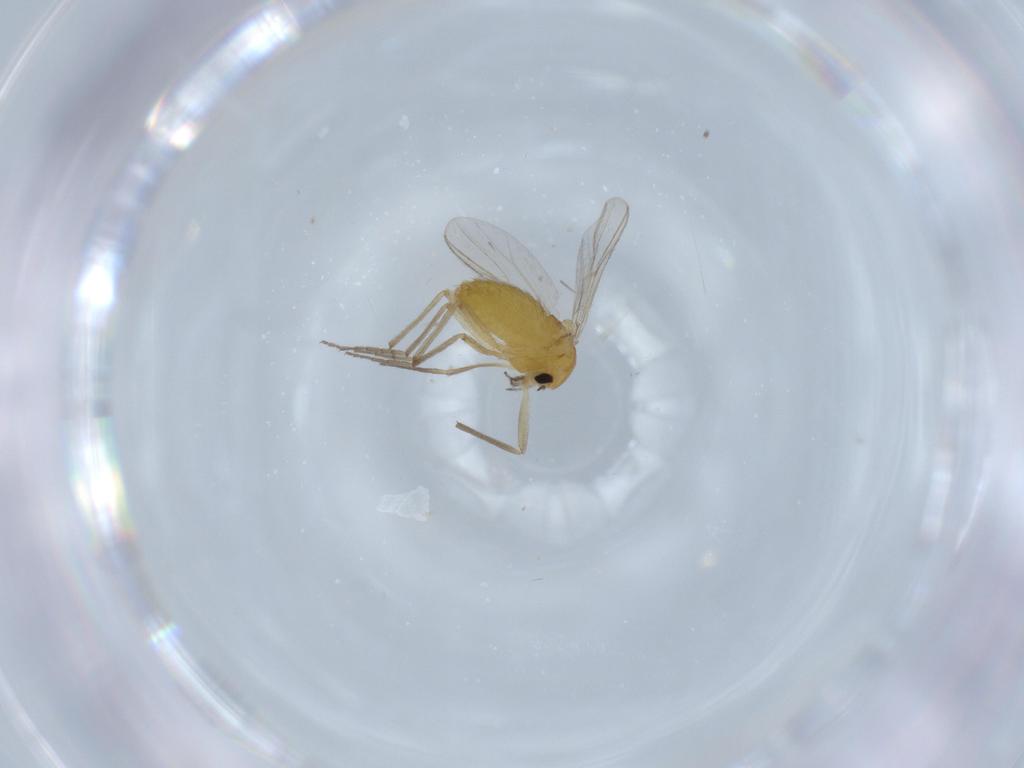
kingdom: Animalia
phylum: Arthropoda
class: Insecta
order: Diptera
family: Chironomidae
